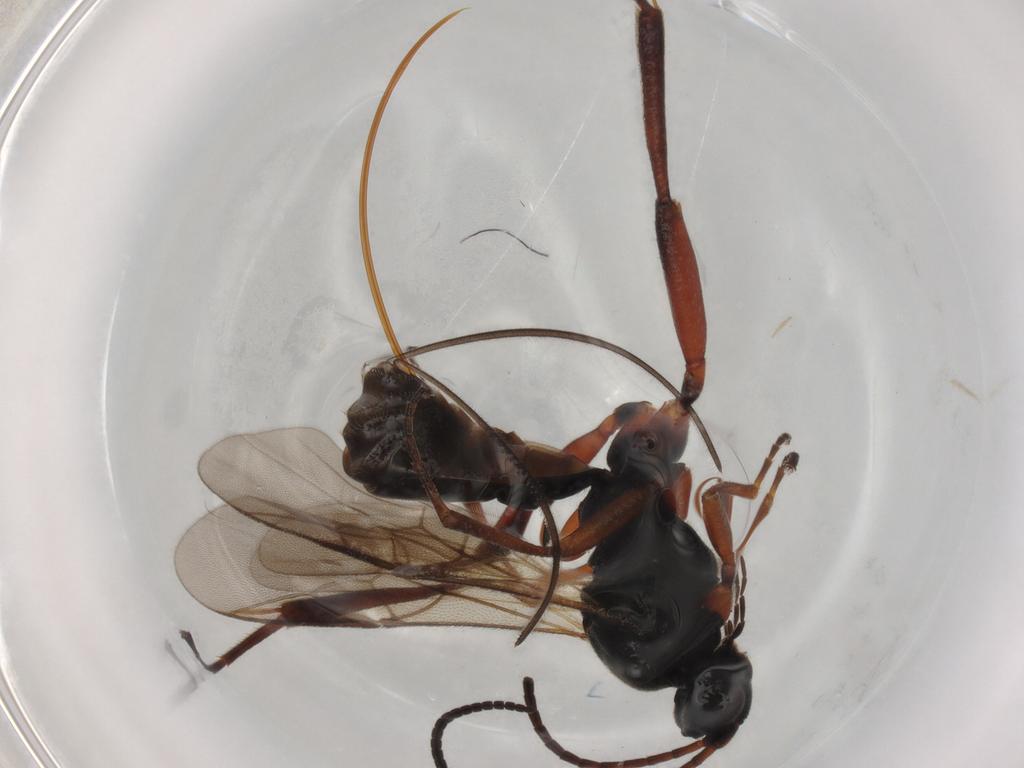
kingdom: Animalia
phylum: Arthropoda
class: Insecta
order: Hymenoptera
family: Braconidae
